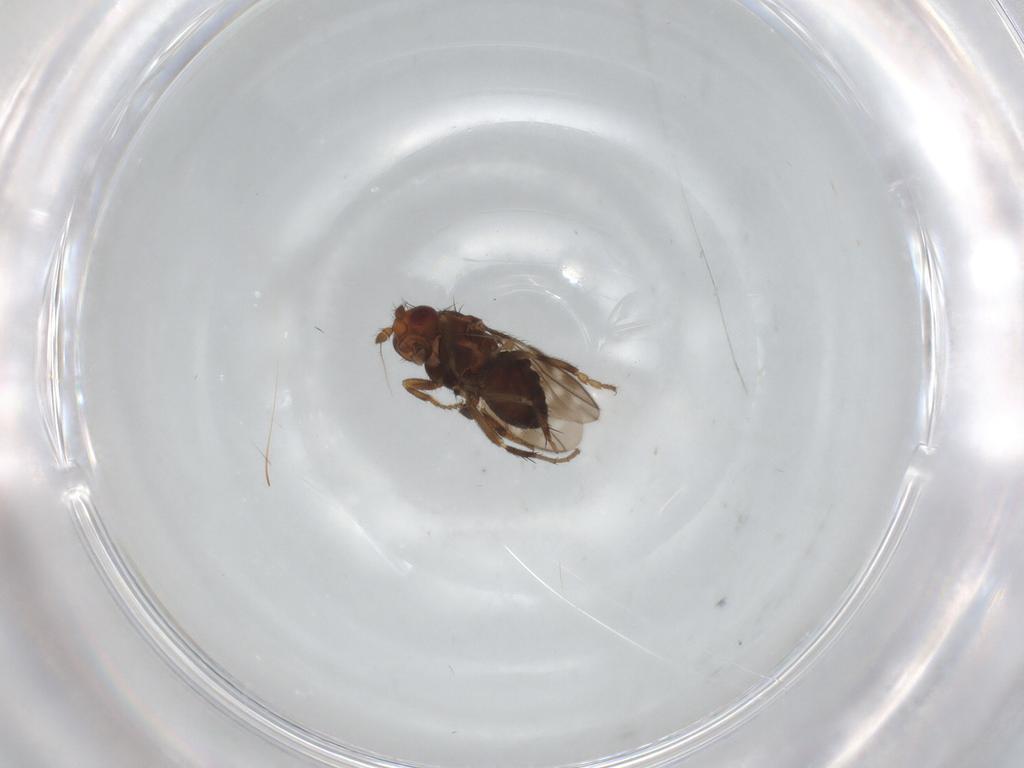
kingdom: Animalia
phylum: Arthropoda
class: Insecta
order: Diptera
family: Sphaeroceridae
